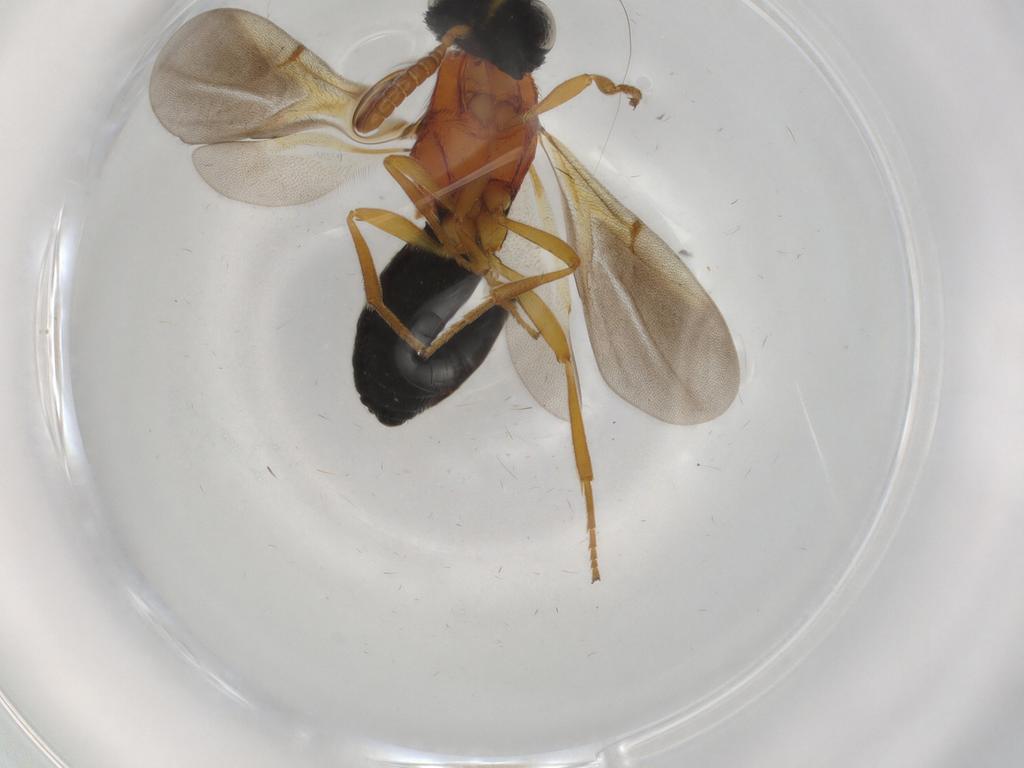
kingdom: Animalia
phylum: Arthropoda
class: Insecta
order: Hymenoptera
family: Scelionidae
